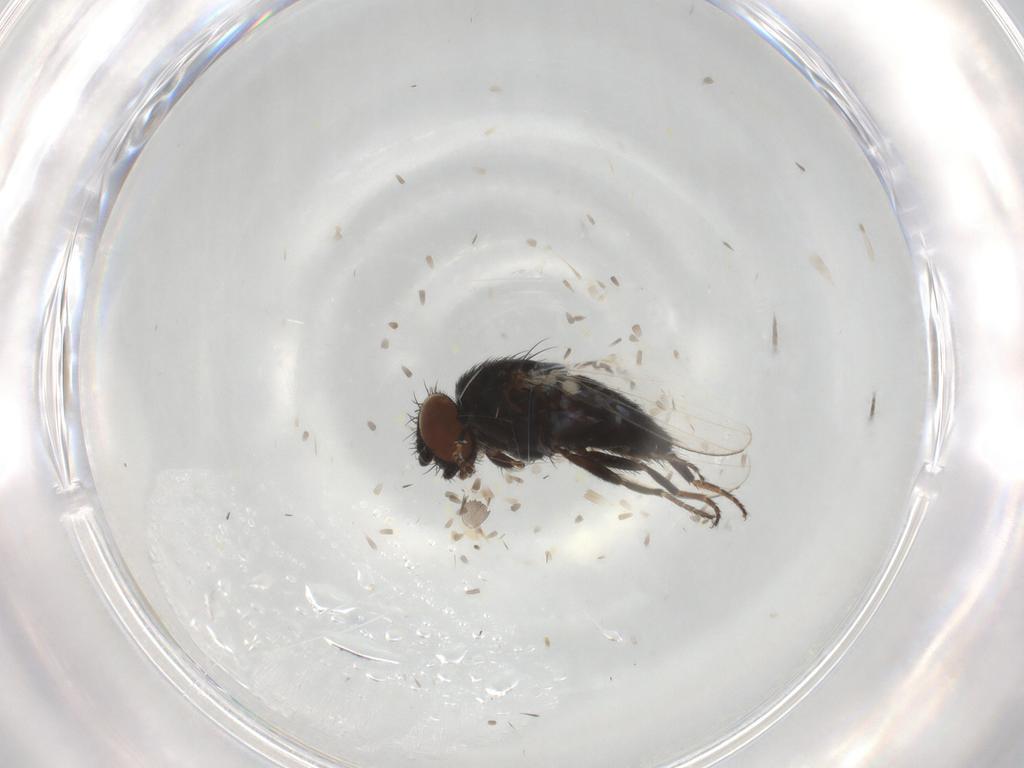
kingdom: Animalia
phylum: Arthropoda
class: Insecta
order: Diptera
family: Milichiidae
